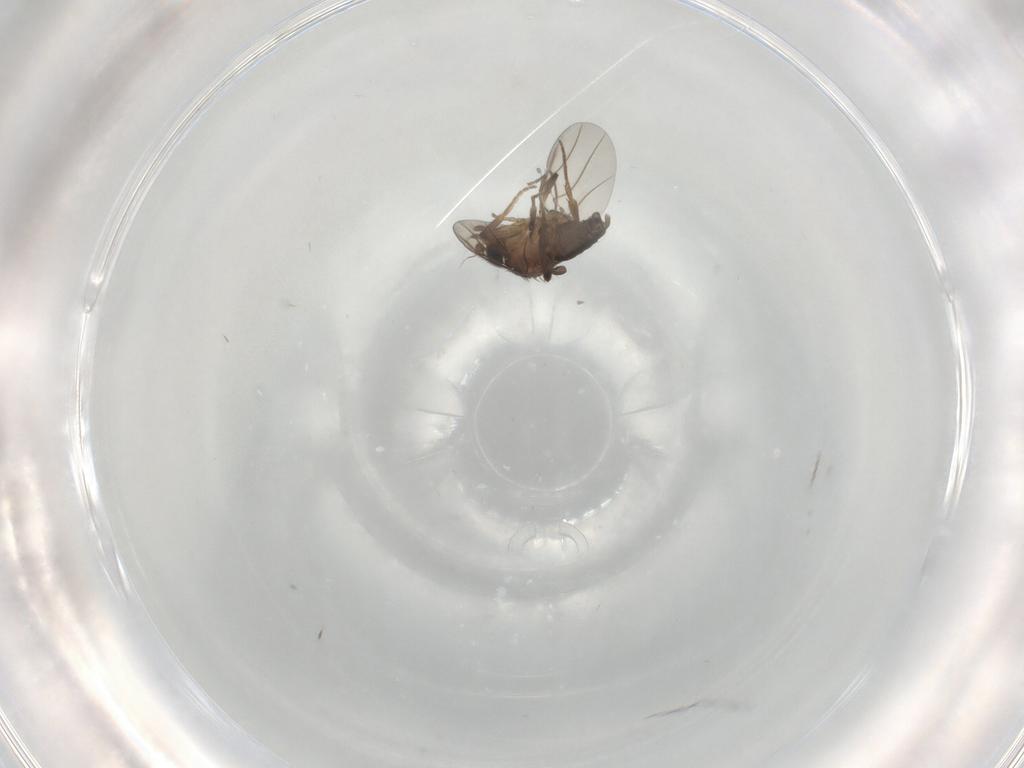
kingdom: Animalia
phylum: Arthropoda
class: Insecta
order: Diptera
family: Phoridae
